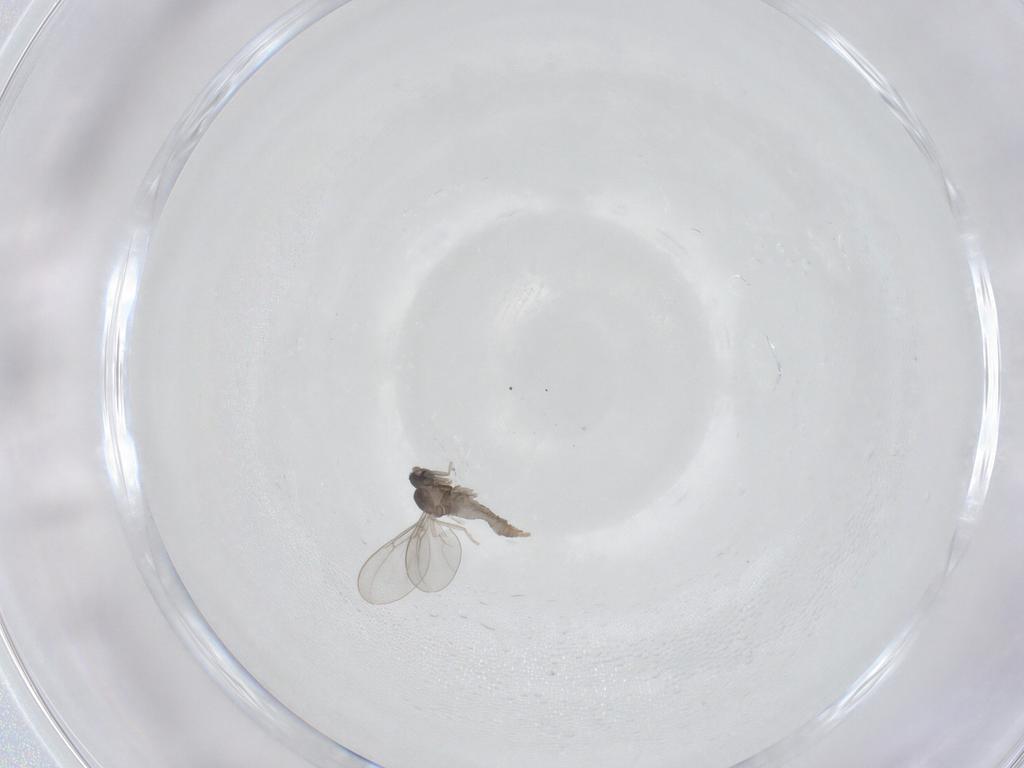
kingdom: Animalia
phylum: Arthropoda
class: Insecta
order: Diptera
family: Cecidomyiidae
